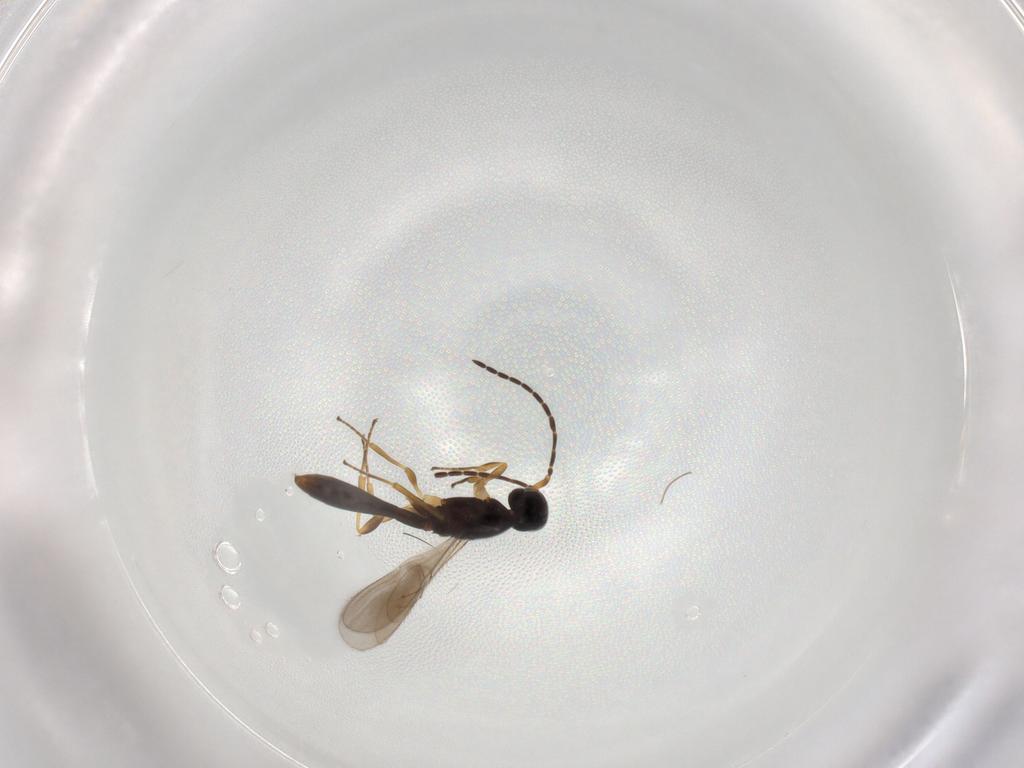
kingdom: Animalia
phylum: Arthropoda
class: Insecta
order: Hymenoptera
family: Scelionidae
